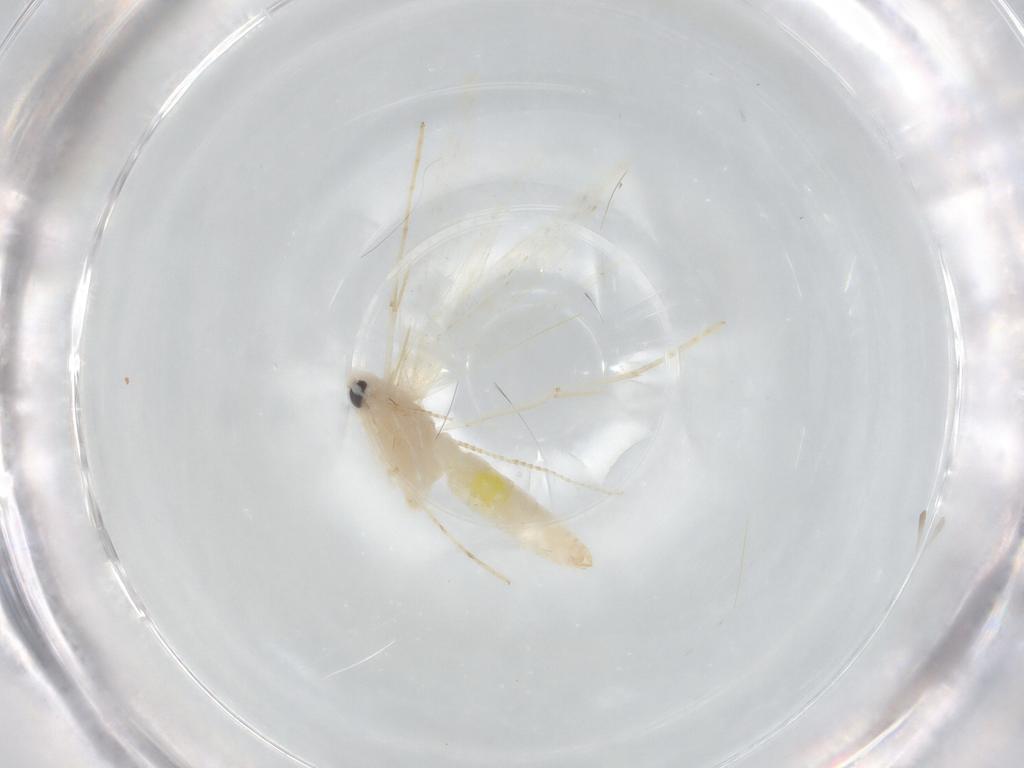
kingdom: Animalia
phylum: Arthropoda
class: Insecta
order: Lepidoptera
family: Nepticulidae
